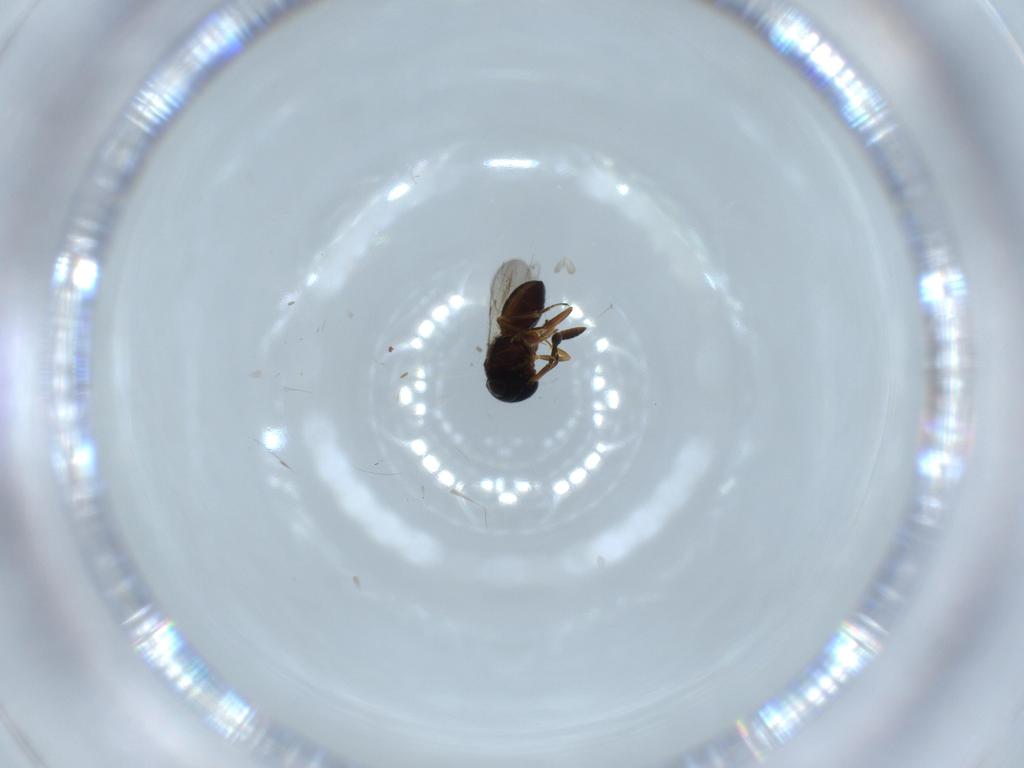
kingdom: Animalia
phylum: Arthropoda
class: Insecta
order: Hymenoptera
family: Scelionidae
